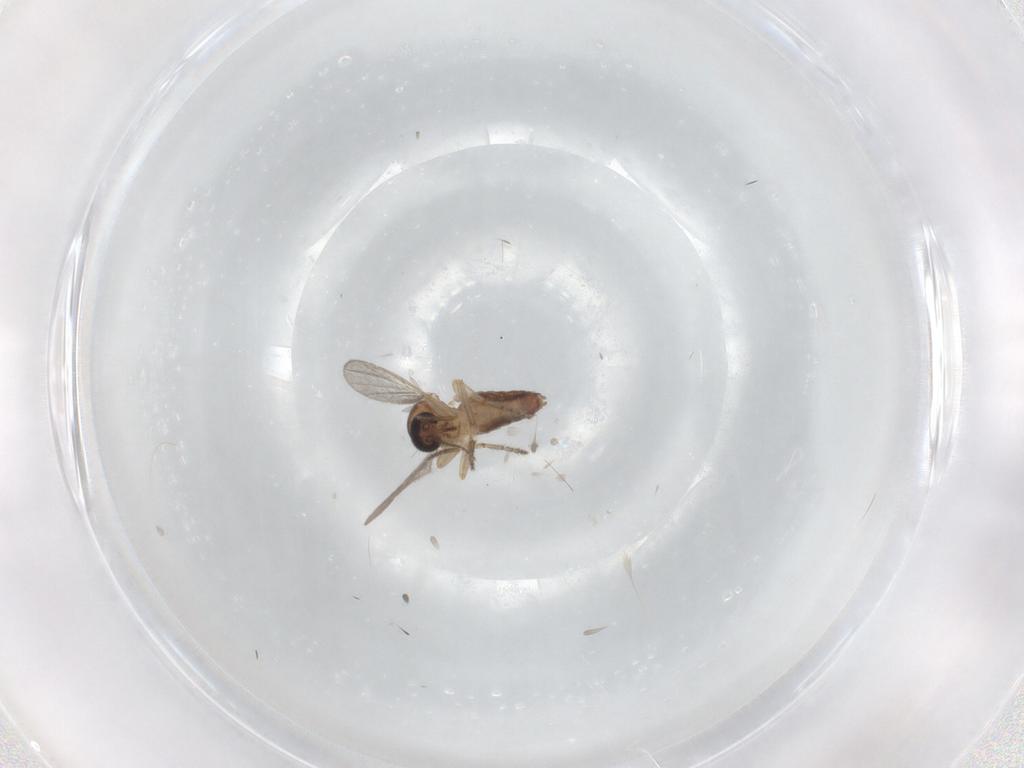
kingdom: Animalia
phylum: Arthropoda
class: Insecta
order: Diptera
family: Ceratopogonidae
